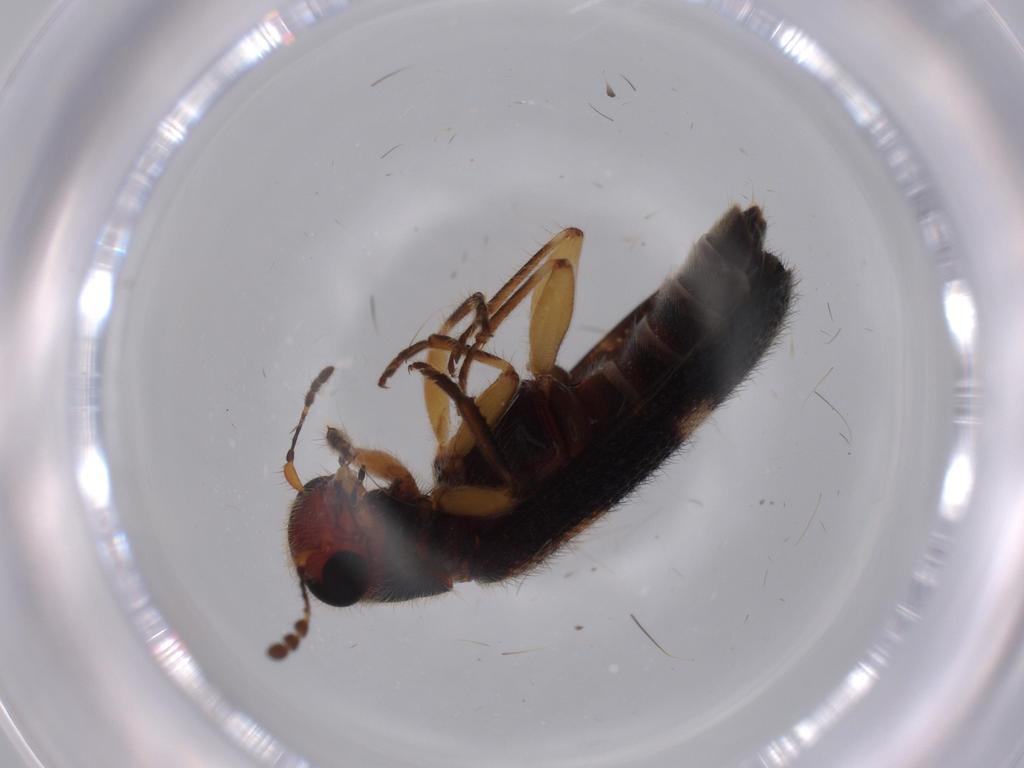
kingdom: Animalia
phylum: Arthropoda
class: Insecta
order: Coleoptera
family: Cleridae
